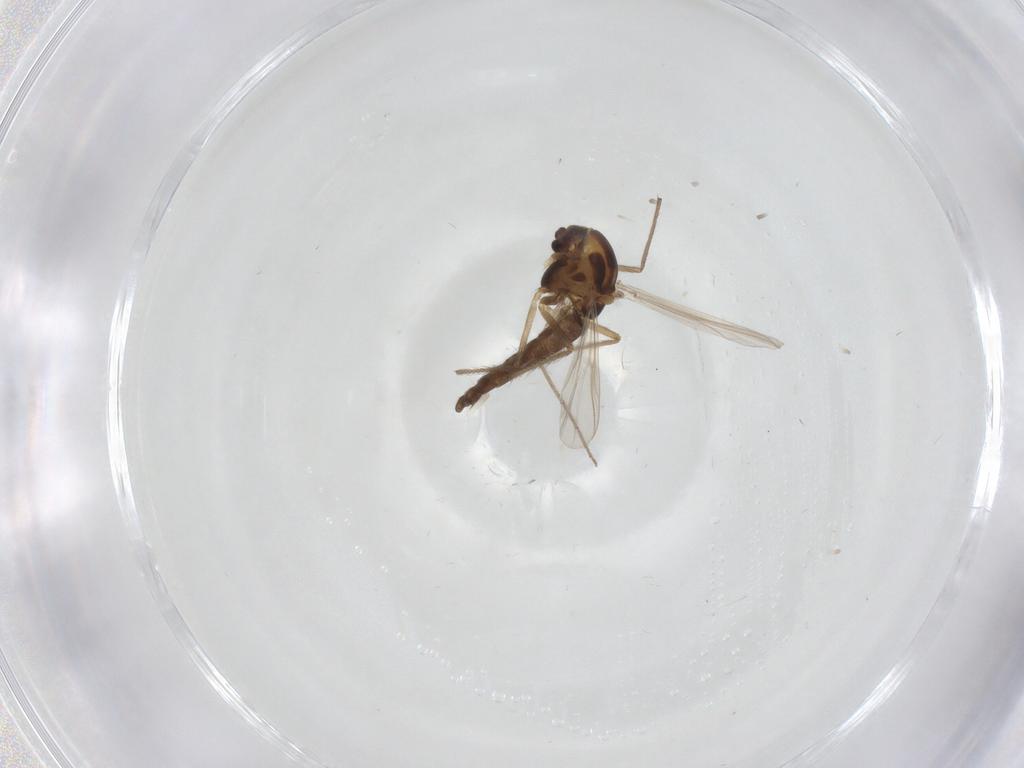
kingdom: Animalia
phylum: Arthropoda
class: Insecta
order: Diptera
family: Chironomidae
